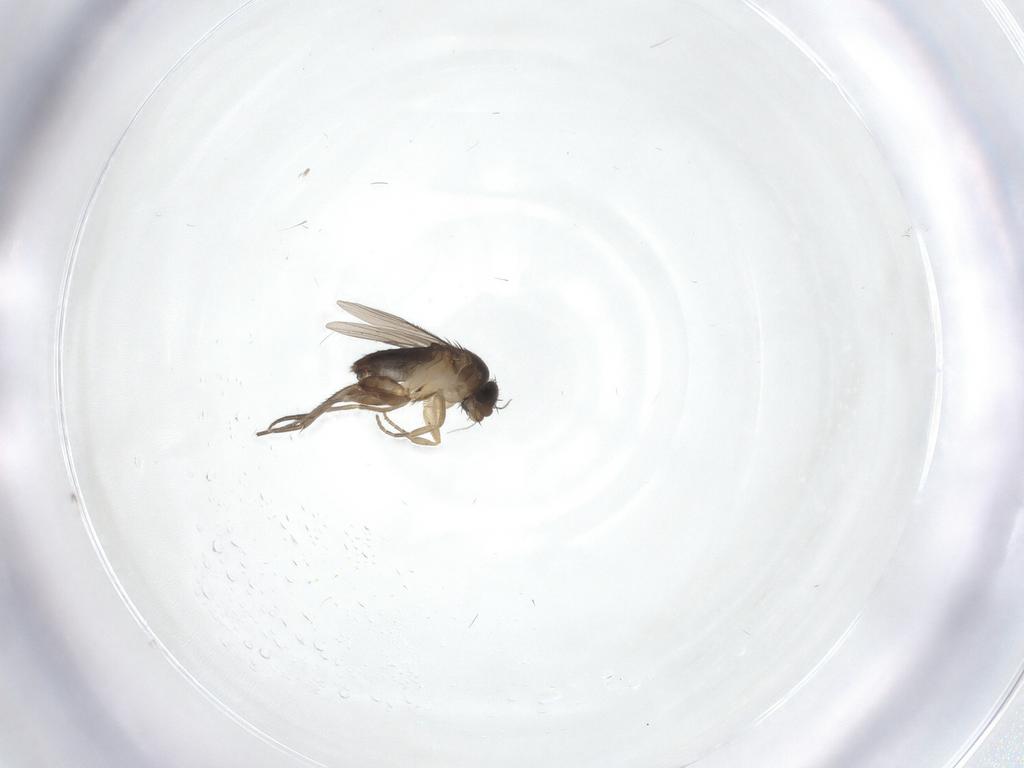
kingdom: Animalia
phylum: Arthropoda
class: Insecta
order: Diptera
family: Phoridae
